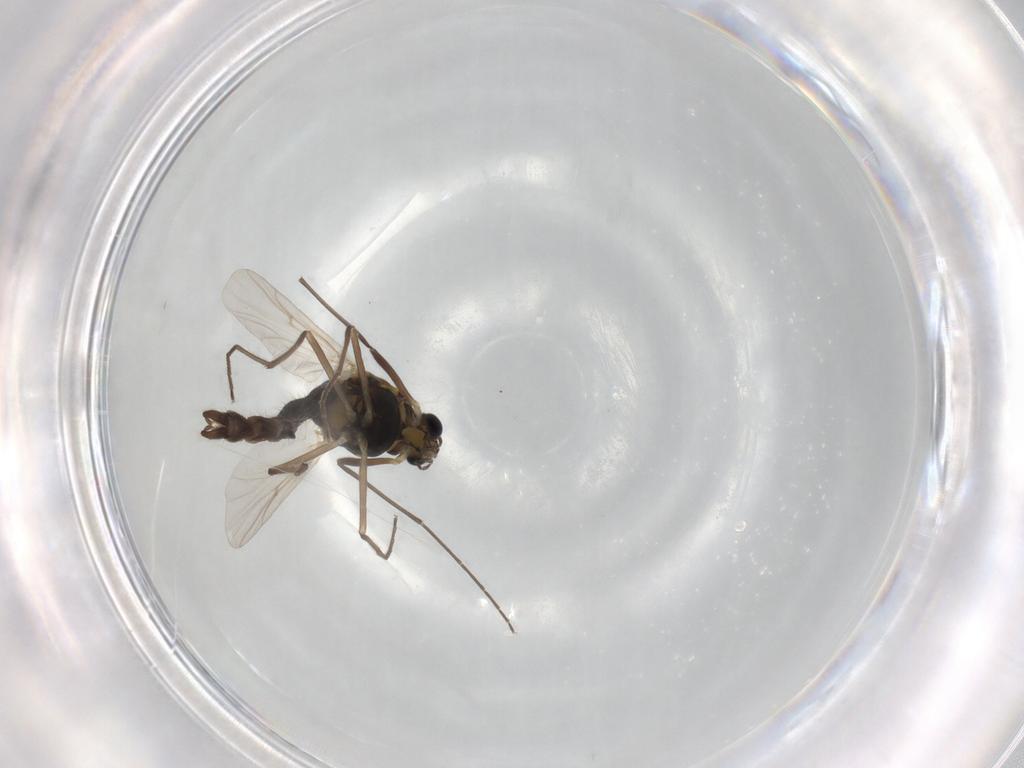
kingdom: Animalia
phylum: Arthropoda
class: Insecta
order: Diptera
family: Chironomidae
